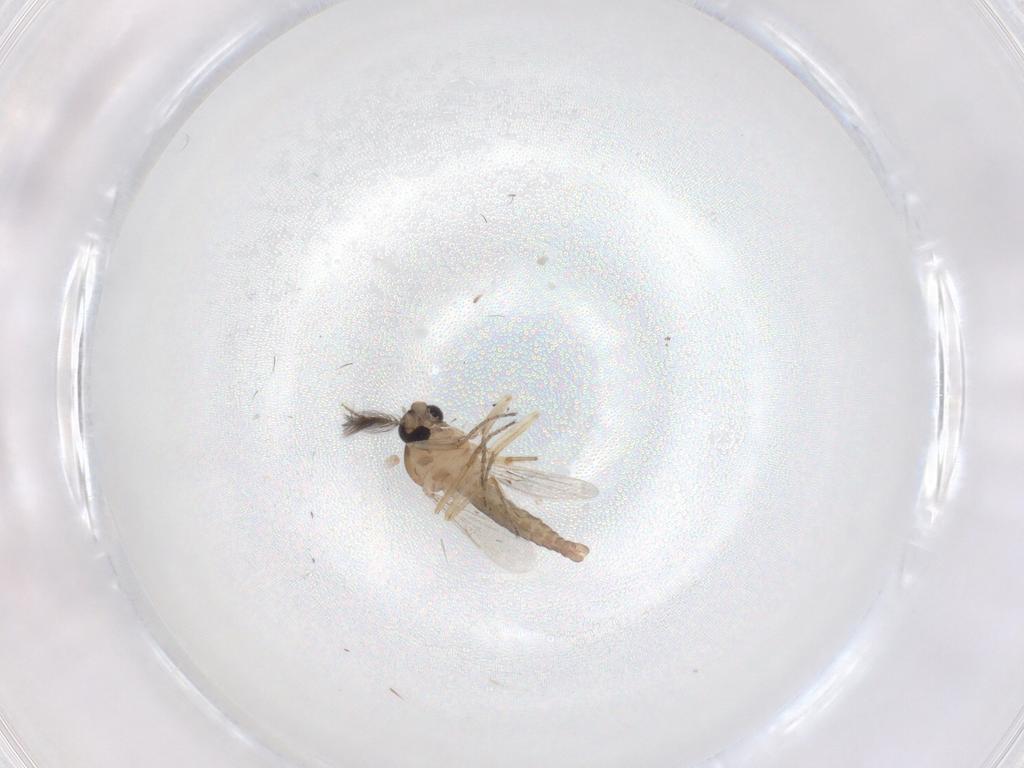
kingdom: Animalia
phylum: Arthropoda
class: Insecta
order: Diptera
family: Ceratopogonidae
